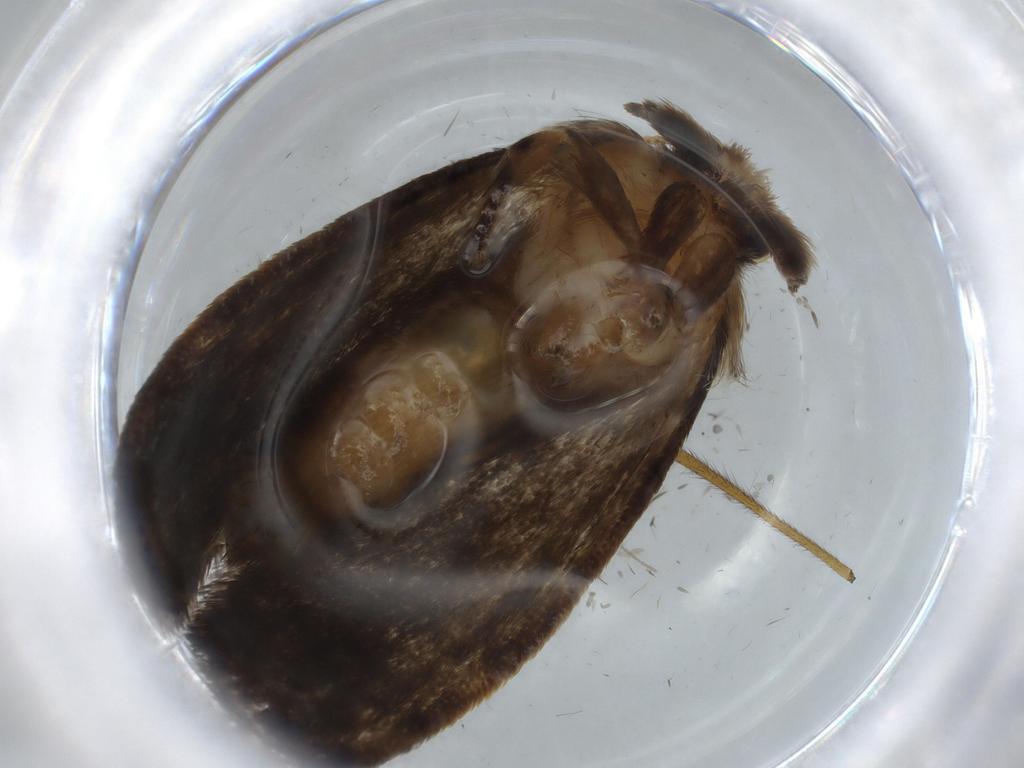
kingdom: Animalia
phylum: Arthropoda
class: Insecta
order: Lepidoptera
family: Tineidae
